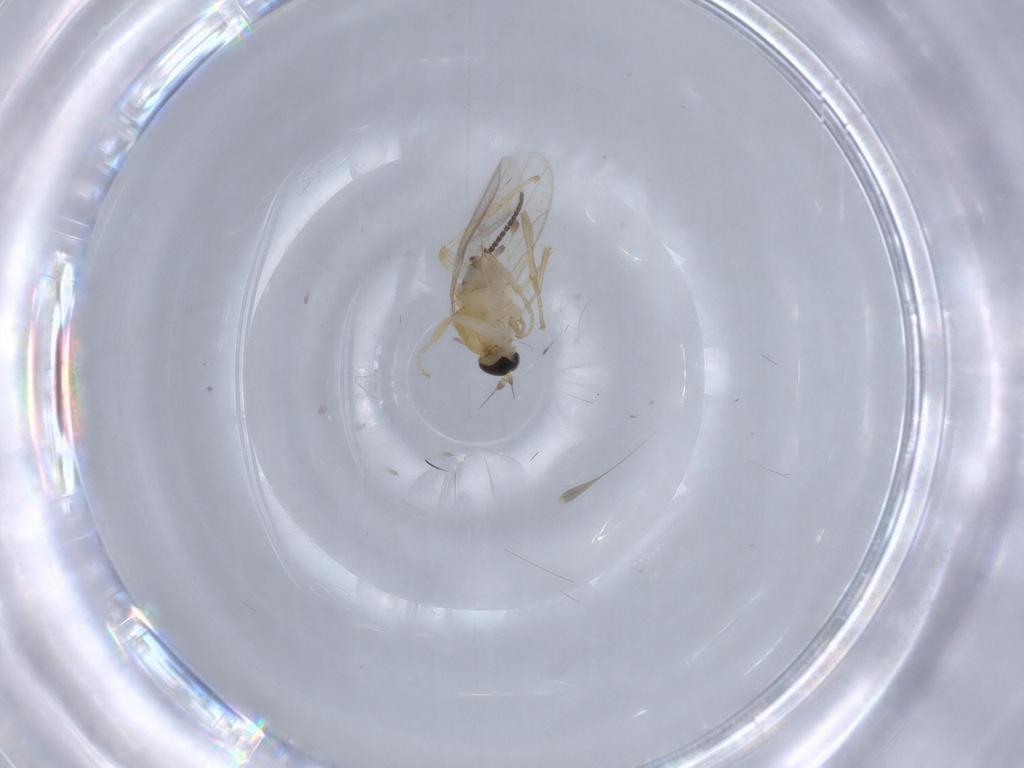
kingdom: Animalia
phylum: Arthropoda
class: Insecta
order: Diptera
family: Hybotidae
